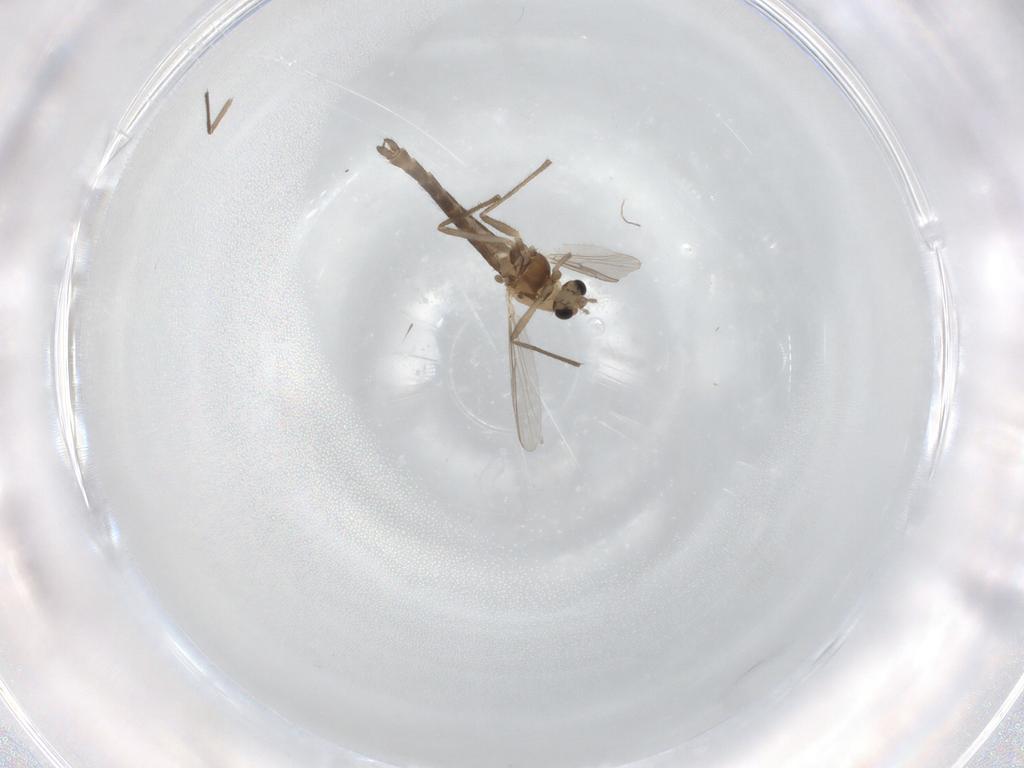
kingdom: Animalia
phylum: Arthropoda
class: Insecta
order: Diptera
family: Chironomidae
